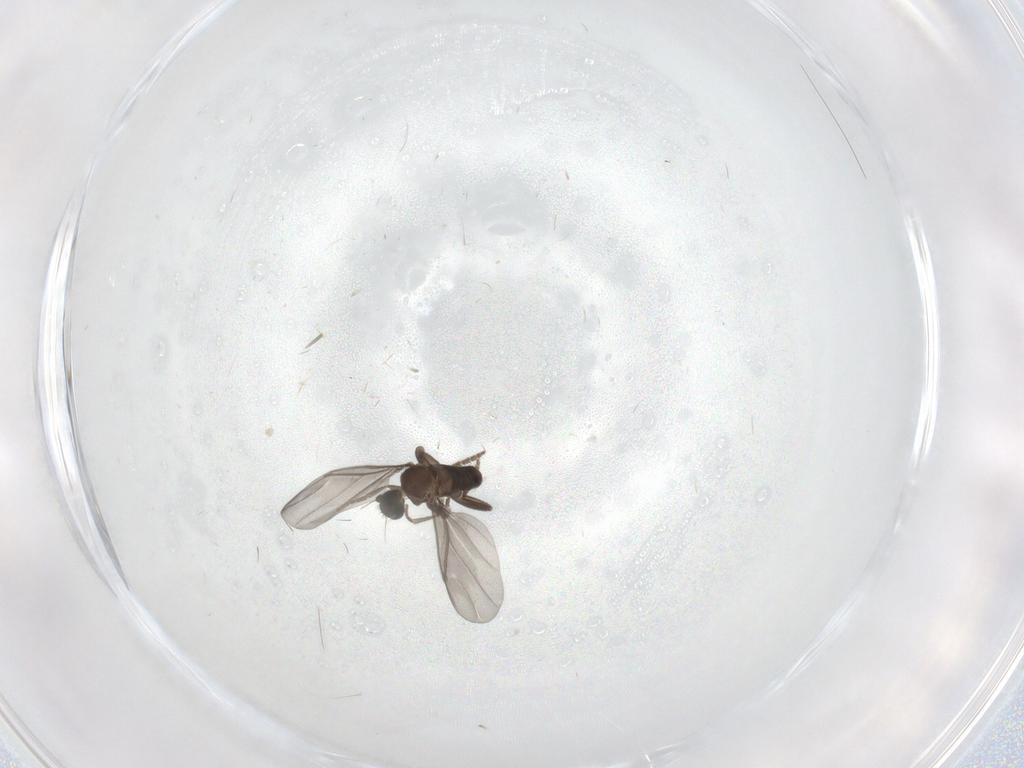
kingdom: Animalia
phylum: Arthropoda
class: Insecta
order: Diptera
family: Phoridae
